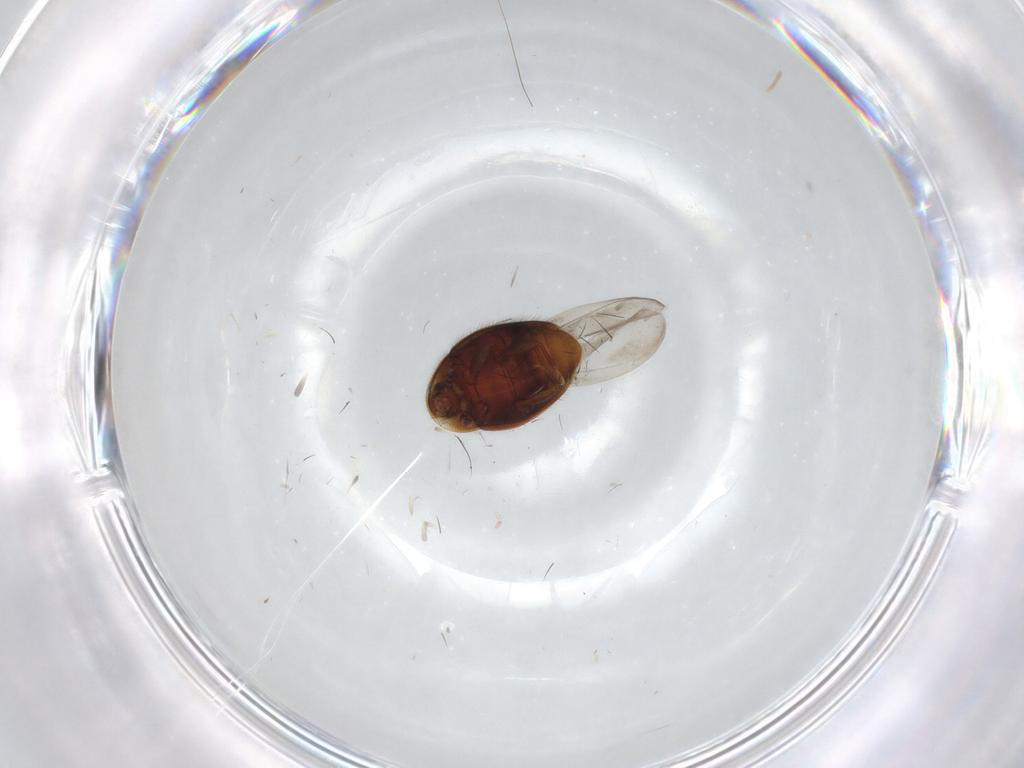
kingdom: Animalia
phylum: Arthropoda
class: Insecta
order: Coleoptera
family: Corylophidae
